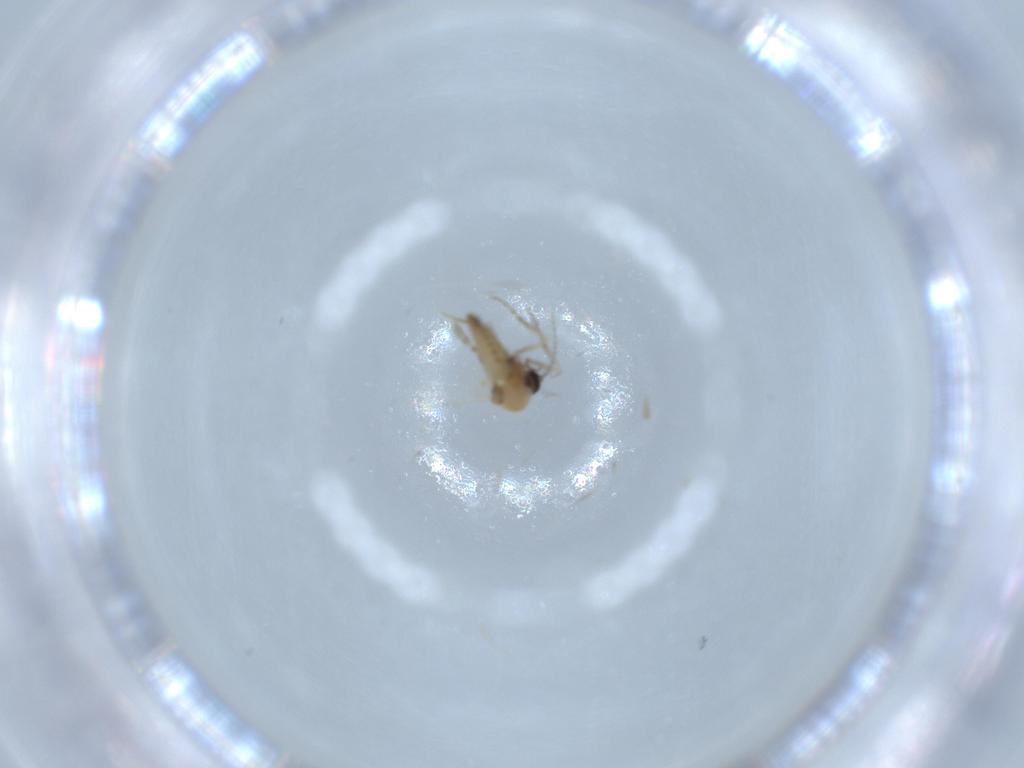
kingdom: Animalia
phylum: Arthropoda
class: Insecta
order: Diptera
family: Ceratopogonidae
